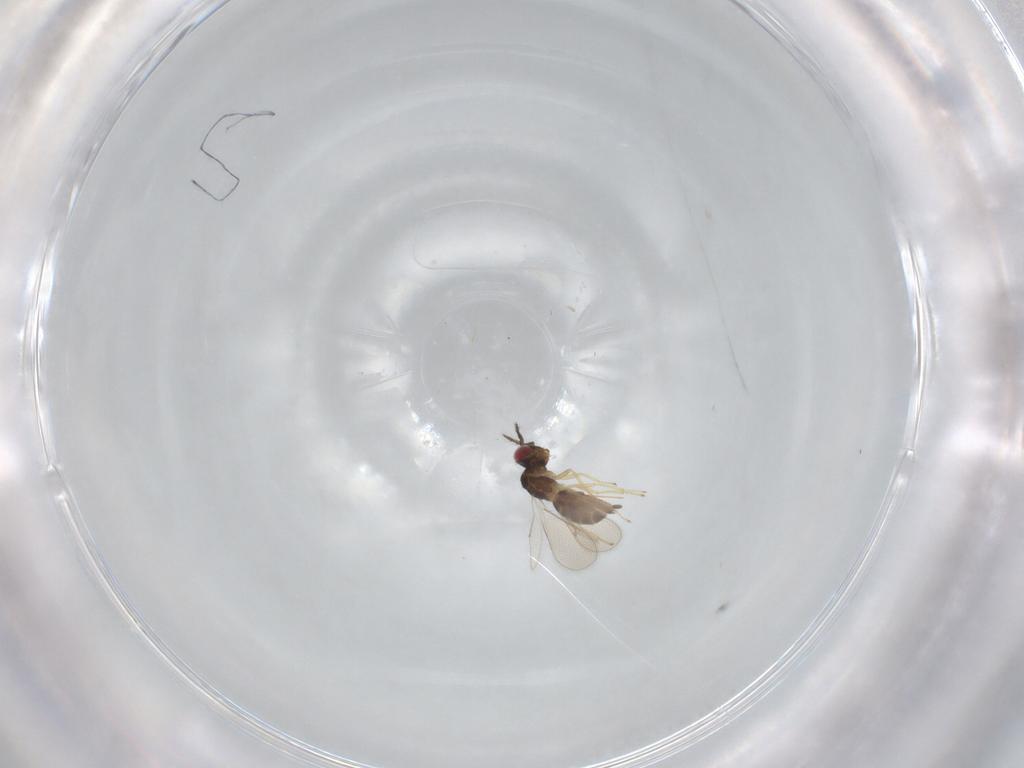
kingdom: Animalia
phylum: Arthropoda
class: Insecta
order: Hymenoptera
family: Eulophidae
